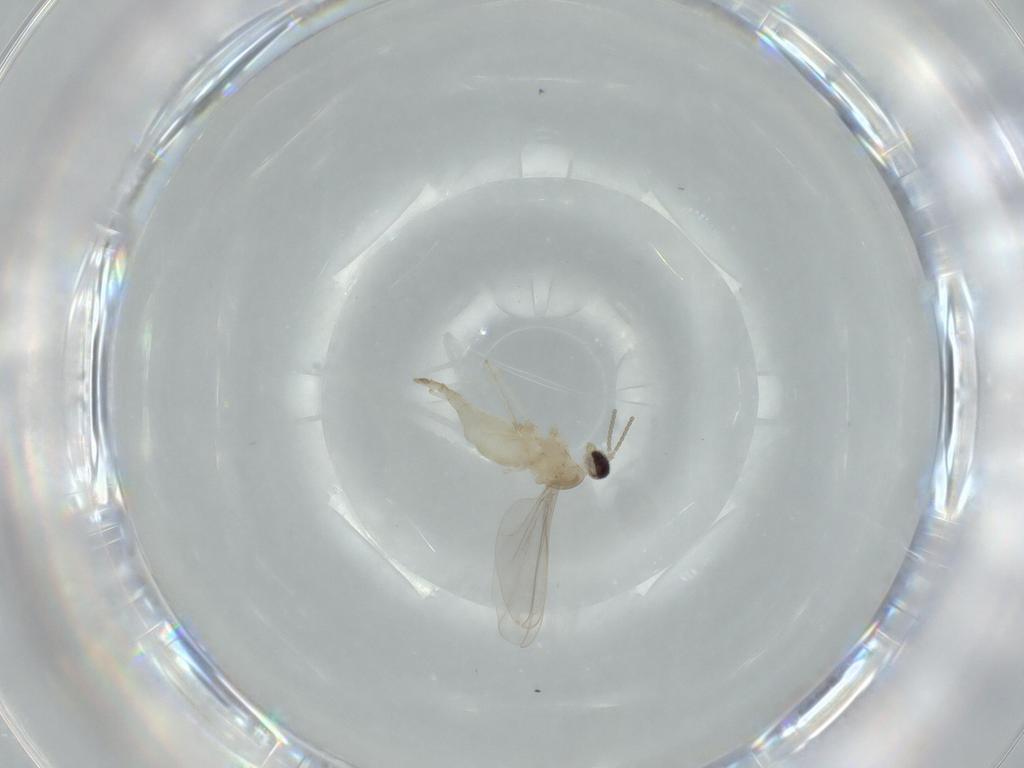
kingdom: Animalia
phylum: Arthropoda
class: Insecta
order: Diptera
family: Cecidomyiidae
